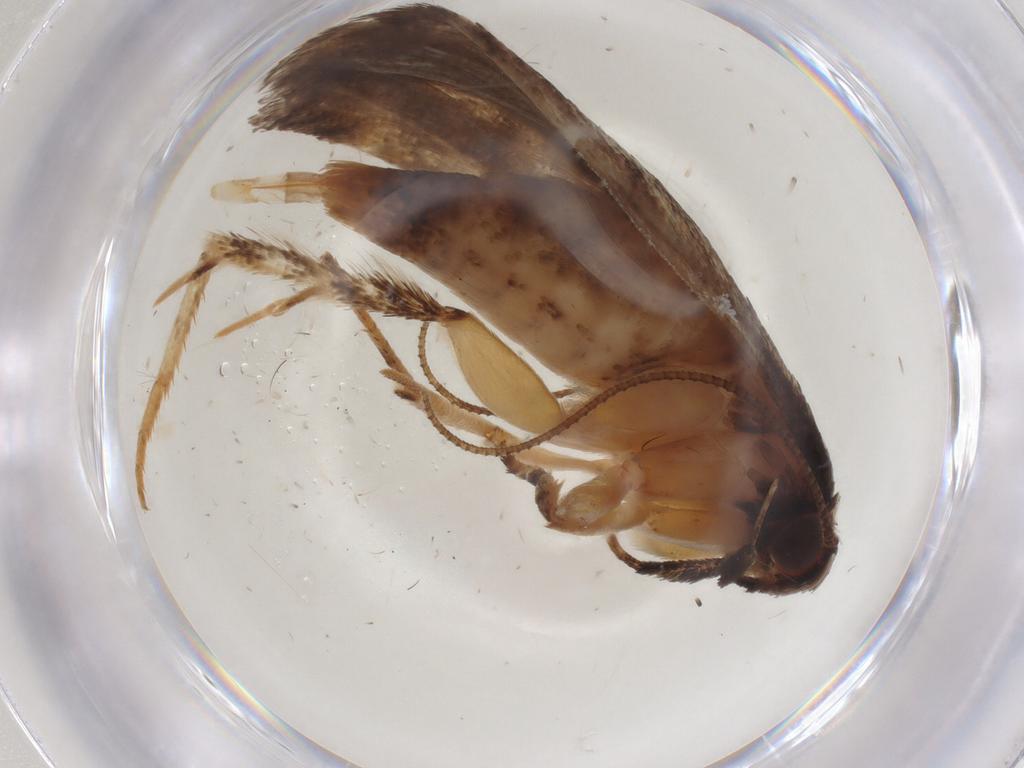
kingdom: Animalia
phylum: Arthropoda
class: Insecta
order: Lepidoptera
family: Gelechiidae
